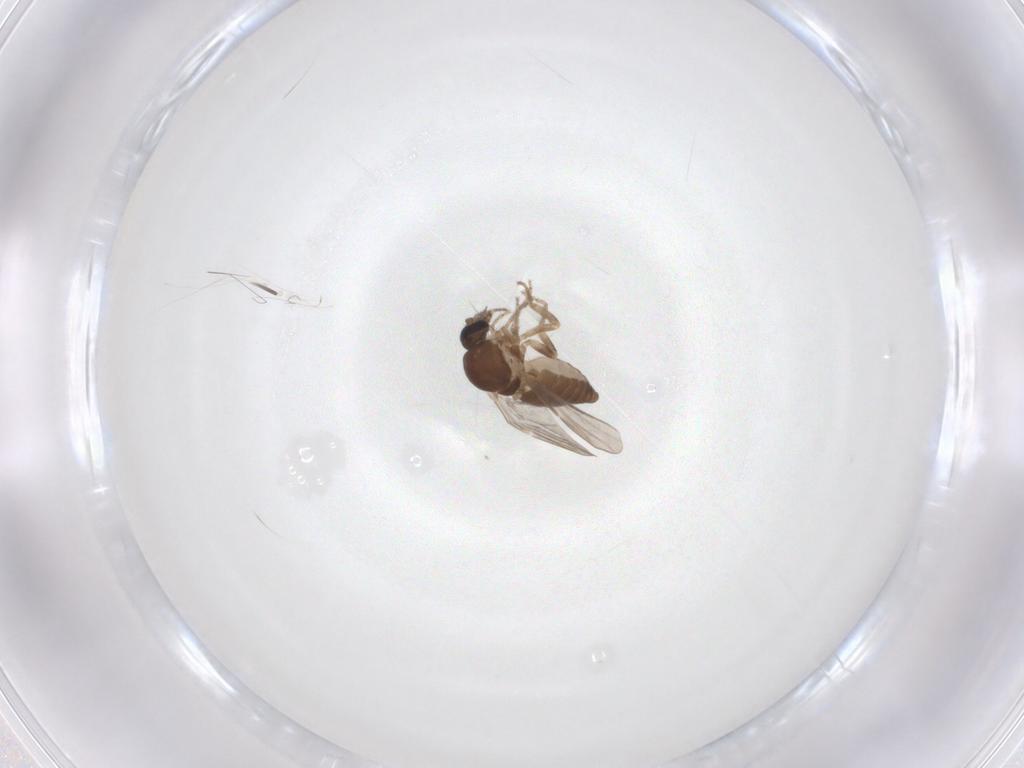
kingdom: Animalia
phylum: Arthropoda
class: Insecta
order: Diptera
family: Ceratopogonidae
